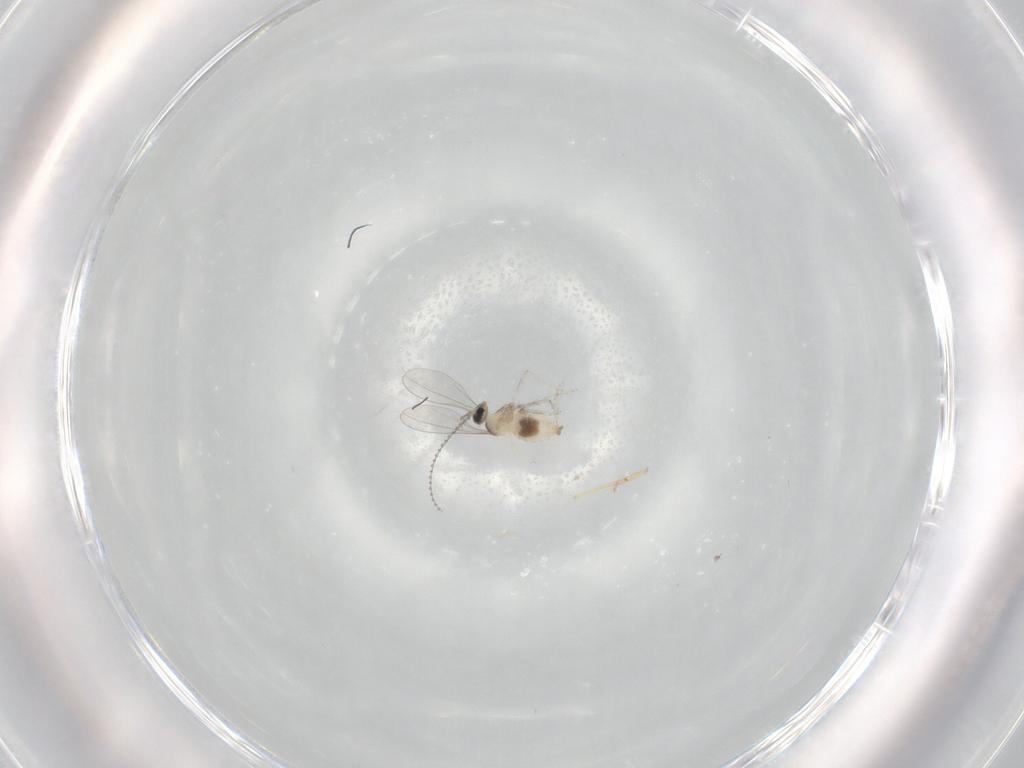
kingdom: Animalia
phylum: Arthropoda
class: Insecta
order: Diptera
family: Cecidomyiidae
